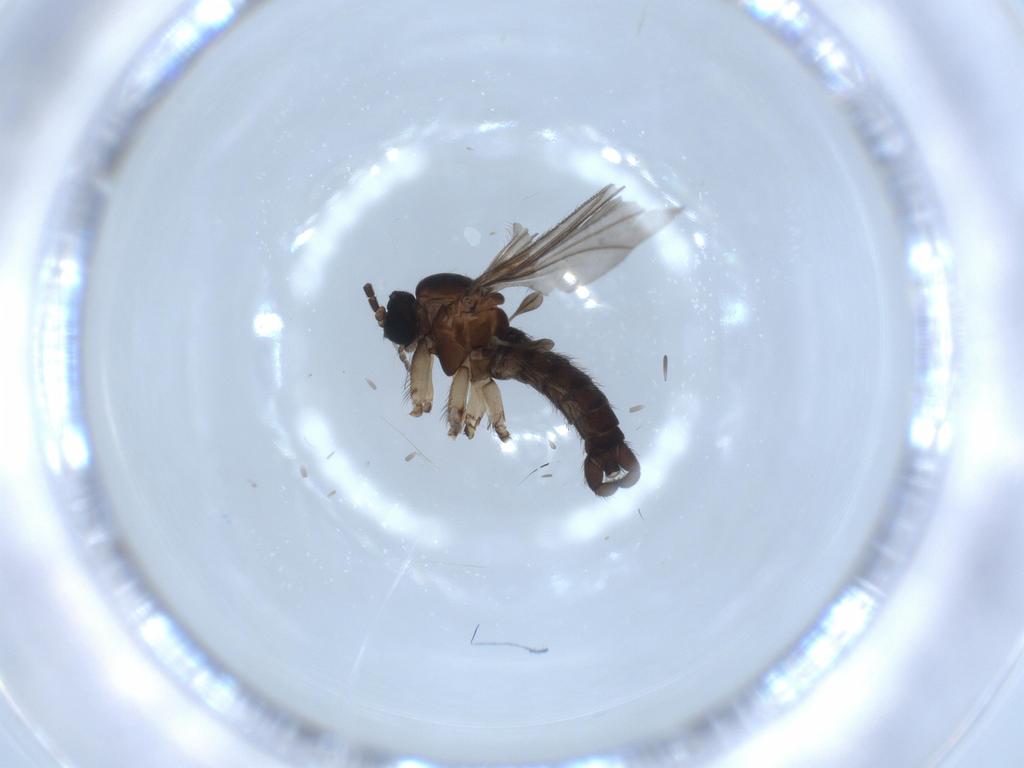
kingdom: Animalia
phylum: Arthropoda
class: Insecta
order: Diptera
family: Sciaridae
